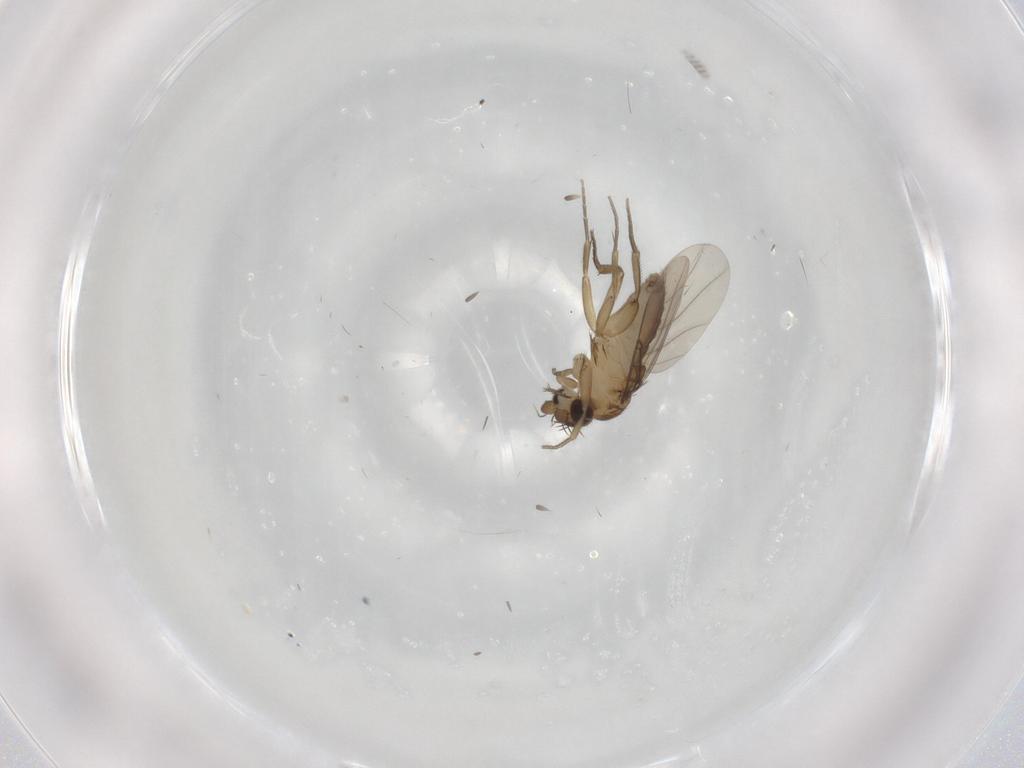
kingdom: Animalia
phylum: Arthropoda
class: Insecta
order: Diptera
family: Phoridae
